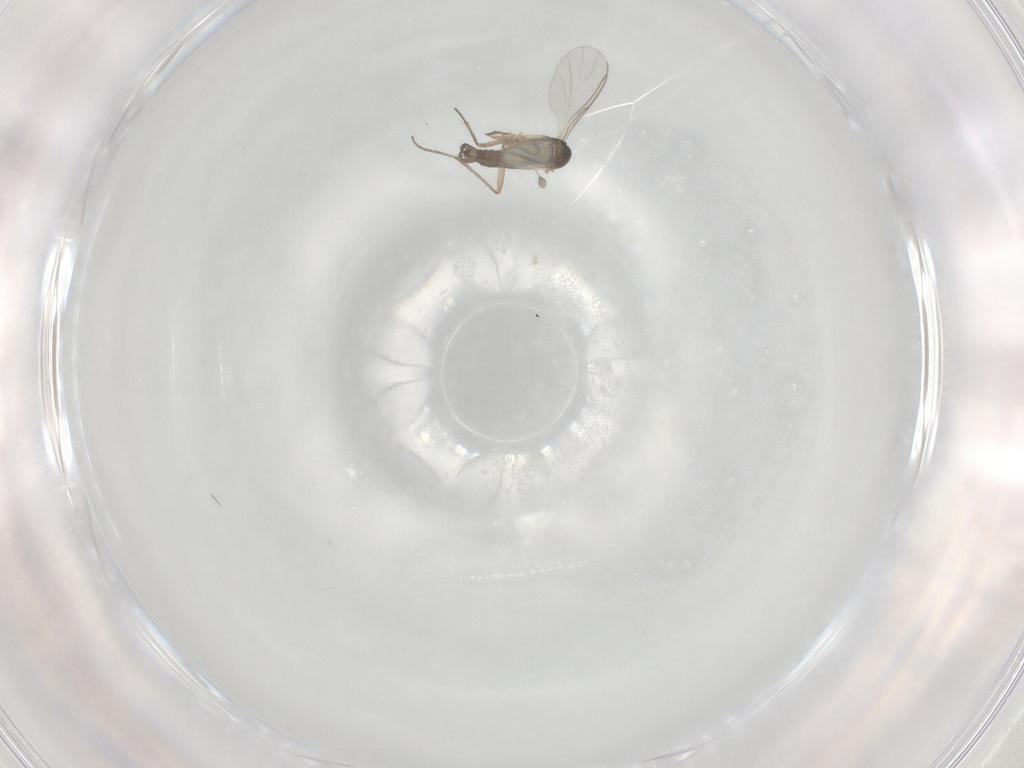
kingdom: Animalia
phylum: Arthropoda
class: Insecta
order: Diptera
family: Sciaridae
